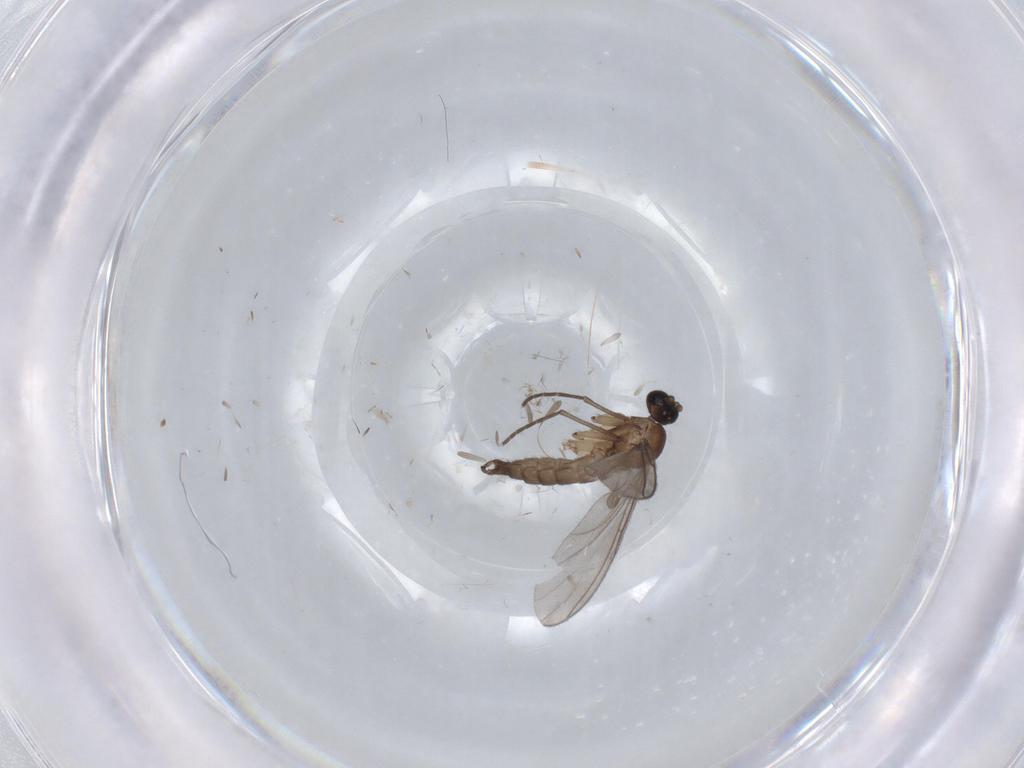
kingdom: Animalia
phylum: Arthropoda
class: Insecta
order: Diptera
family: Sciaridae
